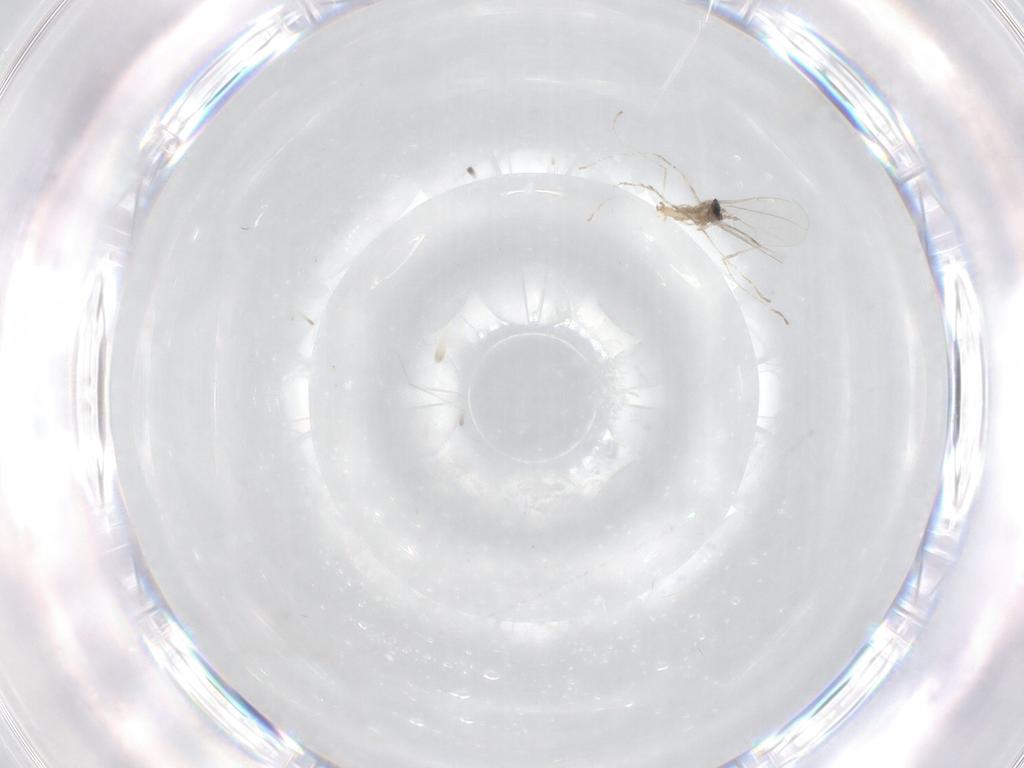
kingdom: Animalia
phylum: Arthropoda
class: Insecta
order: Diptera
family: Cecidomyiidae
